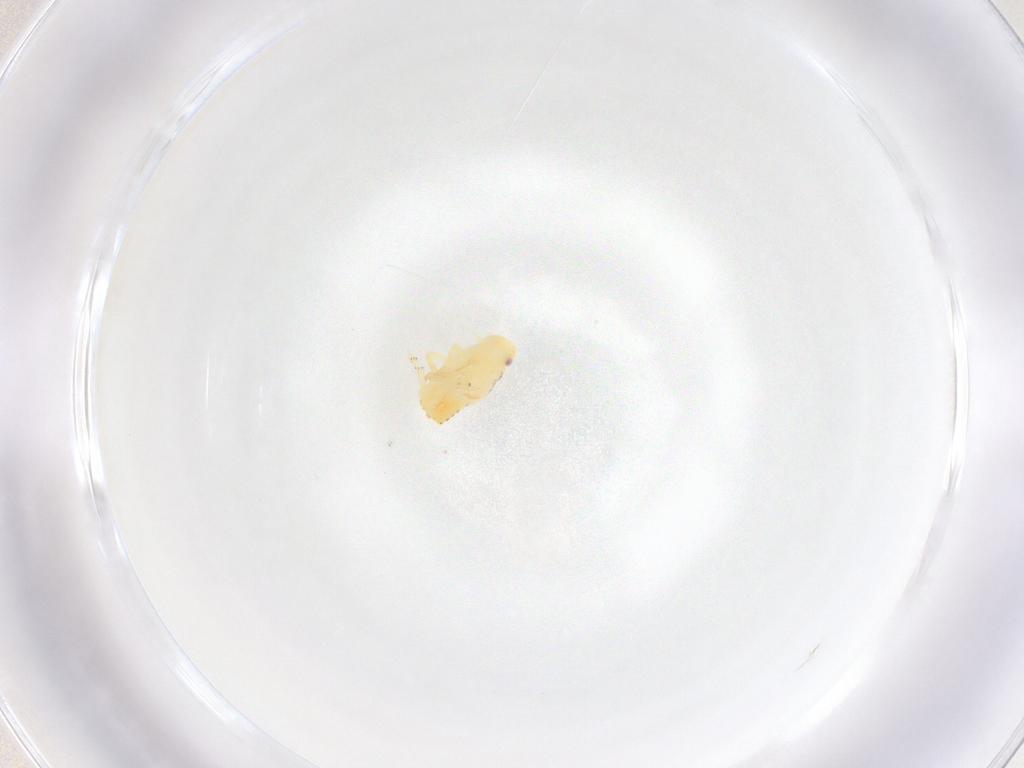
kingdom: Animalia
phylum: Arthropoda
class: Insecta
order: Hemiptera
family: Flatidae
